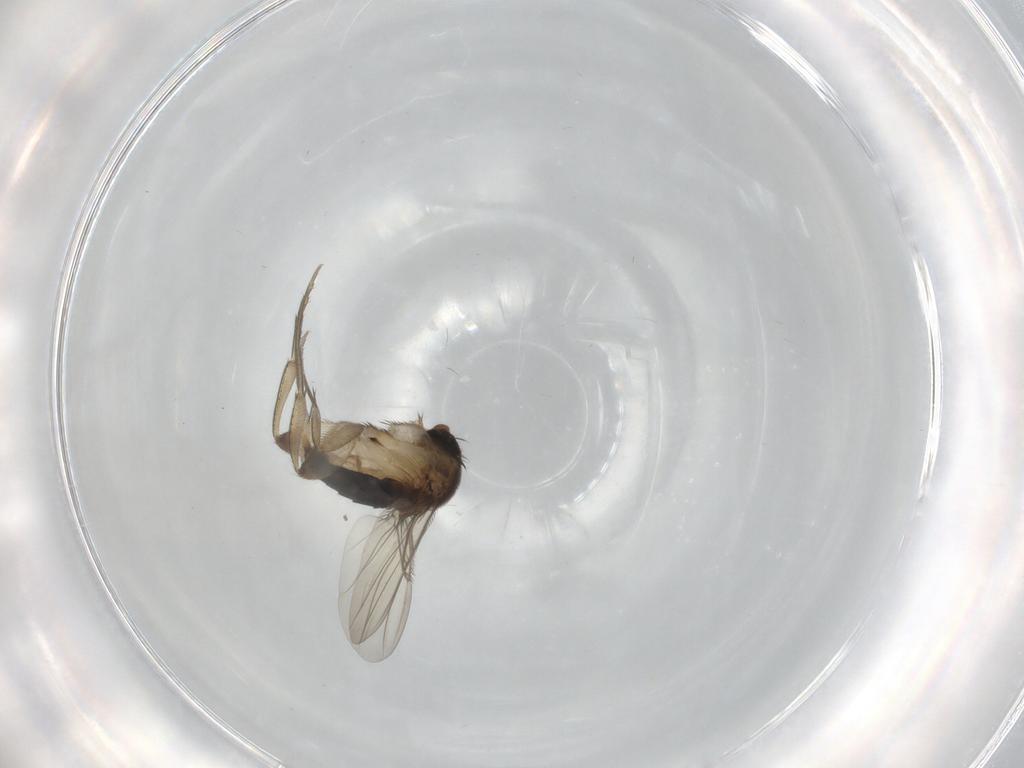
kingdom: Animalia
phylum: Arthropoda
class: Insecta
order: Diptera
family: Phoridae
